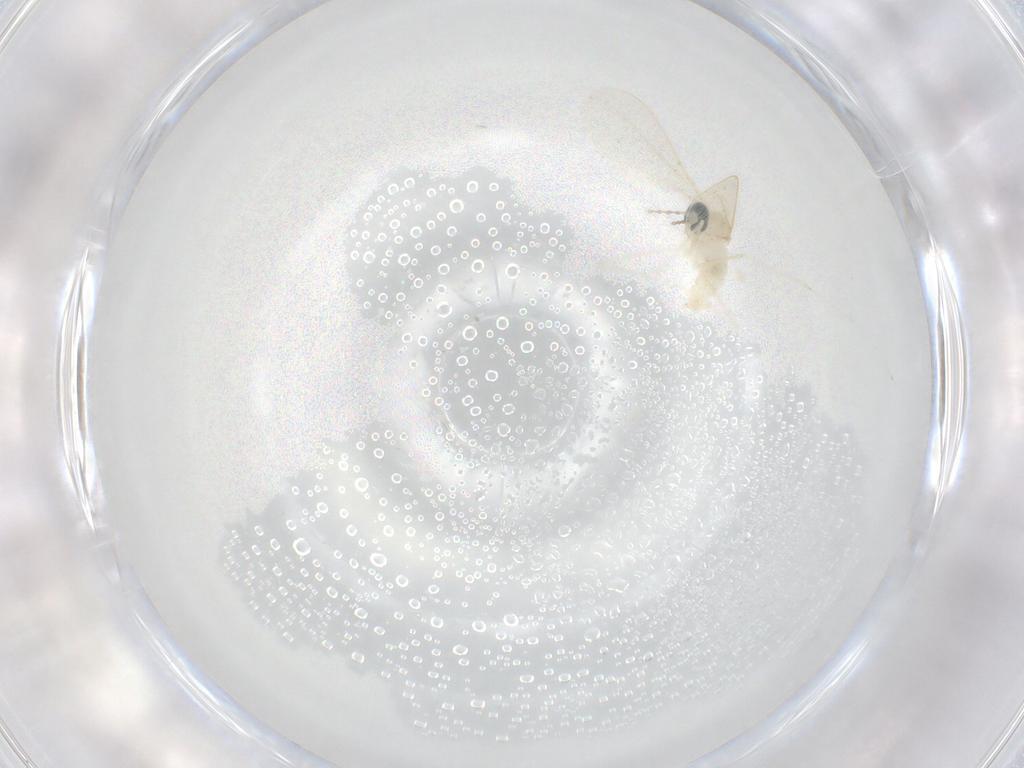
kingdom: Animalia
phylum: Arthropoda
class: Insecta
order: Diptera
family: Cecidomyiidae
